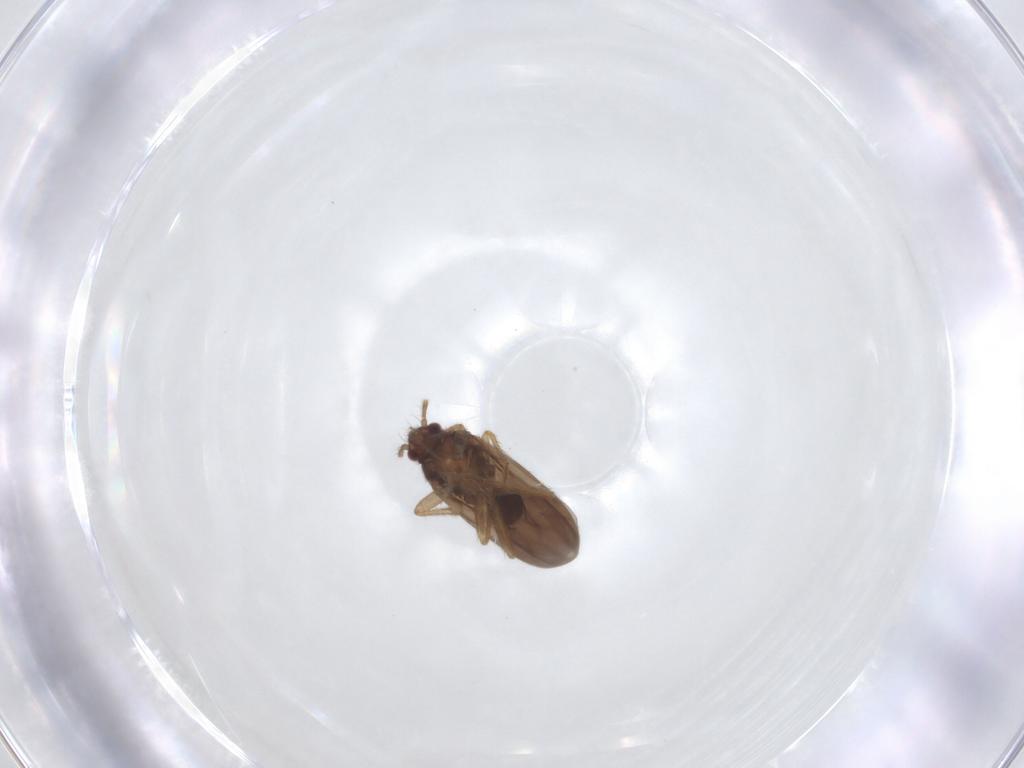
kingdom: Animalia
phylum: Arthropoda
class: Insecta
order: Hemiptera
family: Ceratocombidae
